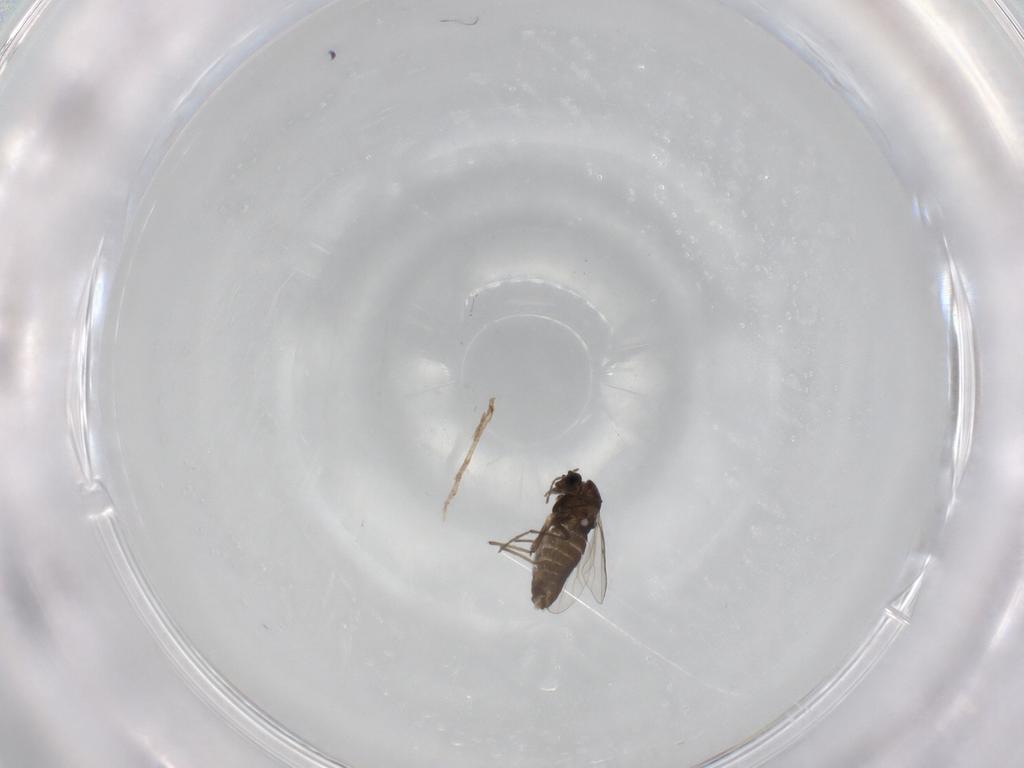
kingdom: Animalia
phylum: Arthropoda
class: Insecta
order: Diptera
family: Chironomidae
